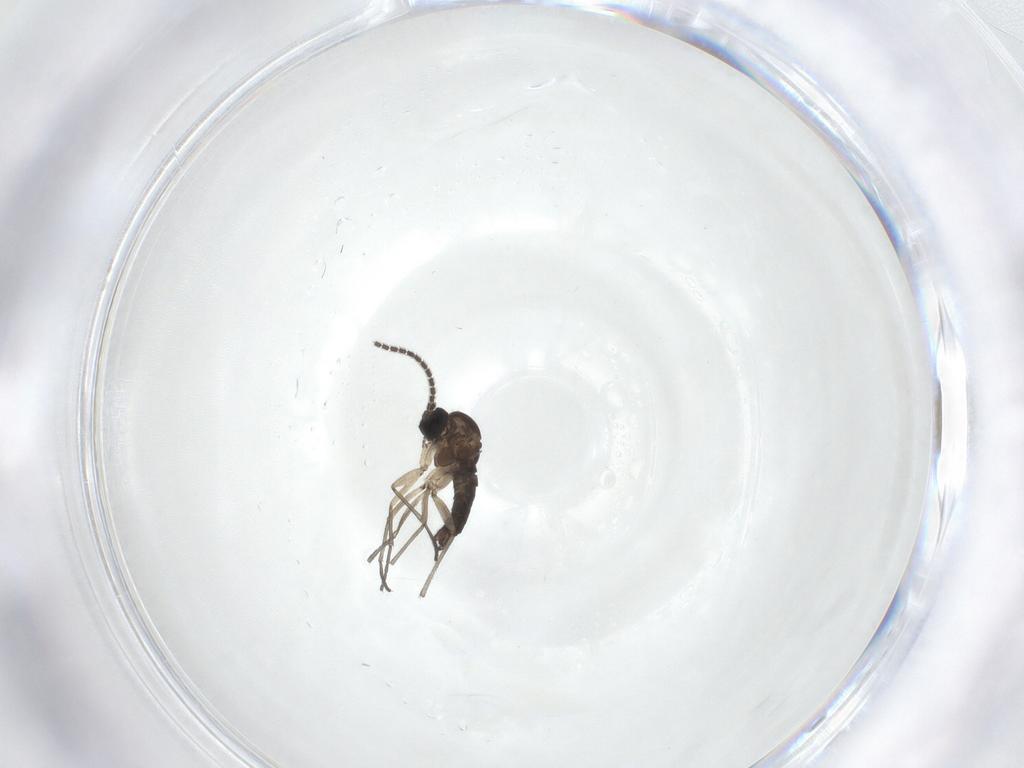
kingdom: Animalia
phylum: Arthropoda
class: Insecta
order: Diptera
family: Sciaridae
